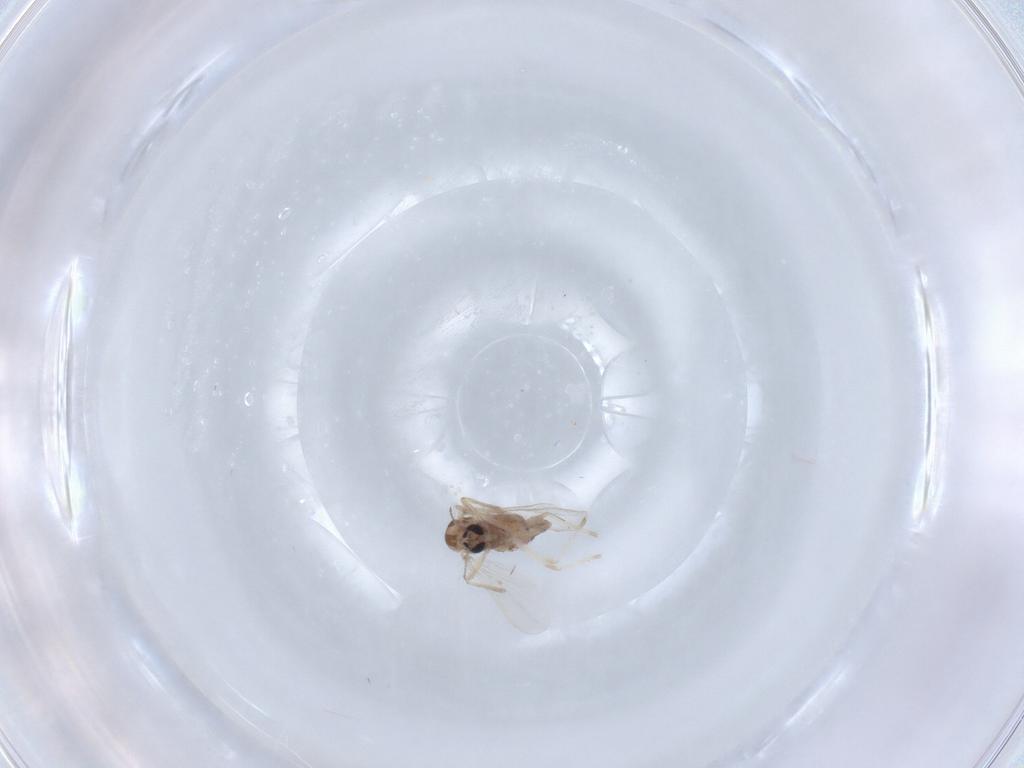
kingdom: Animalia
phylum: Arthropoda
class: Insecta
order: Diptera
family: Chironomidae
